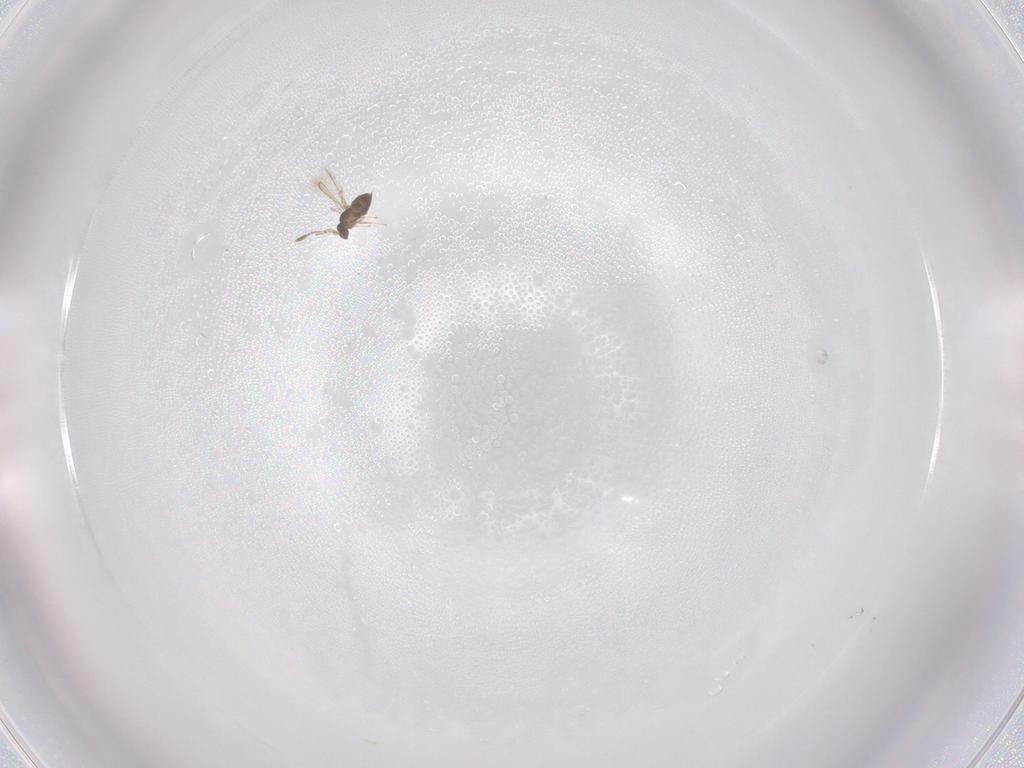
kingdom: Animalia
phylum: Arthropoda
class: Insecta
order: Hymenoptera
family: Mymaridae
